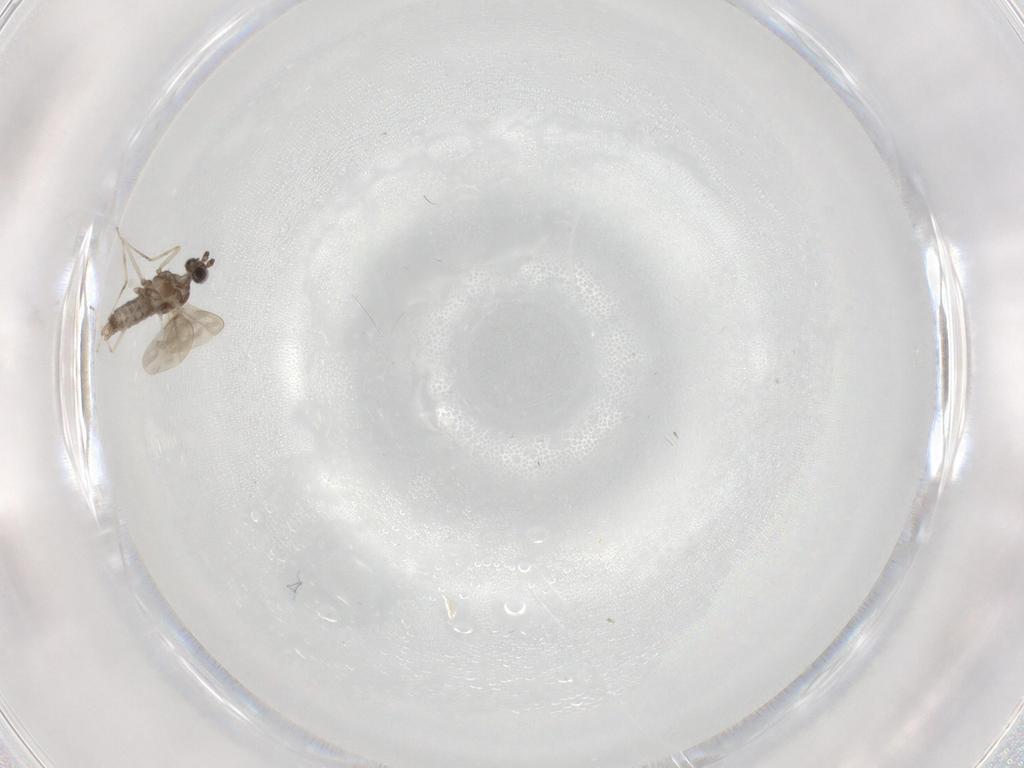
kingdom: Animalia
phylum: Arthropoda
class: Insecta
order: Diptera
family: Cecidomyiidae
